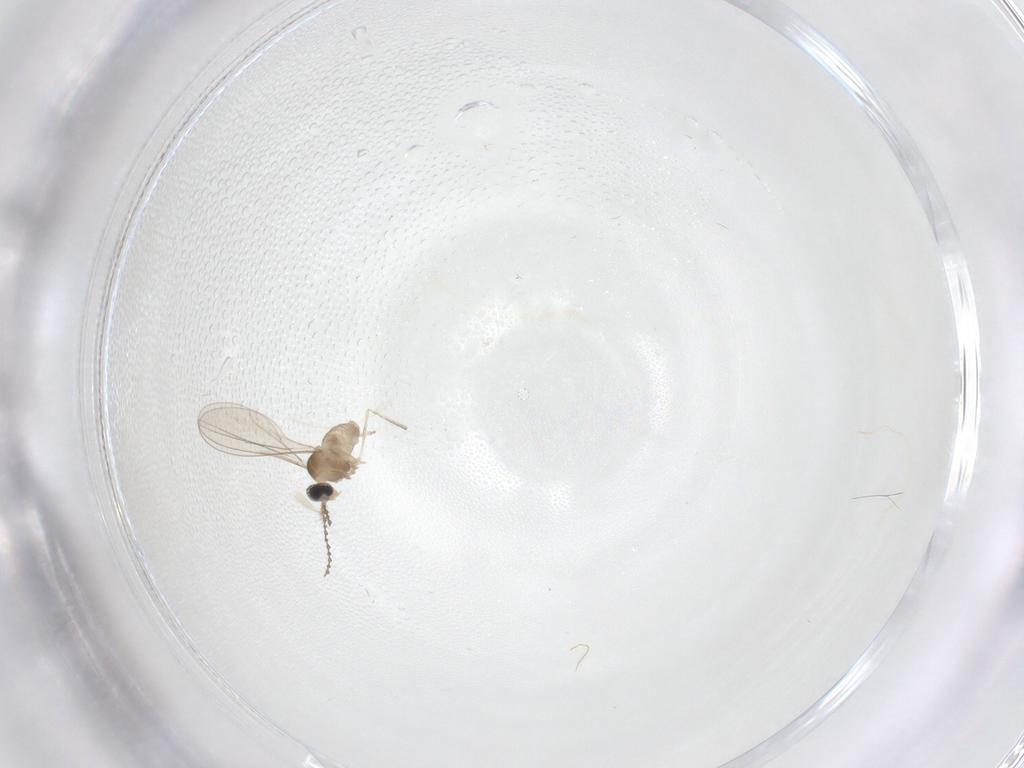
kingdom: Animalia
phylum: Arthropoda
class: Insecta
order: Diptera
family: Cecidomyiidae
